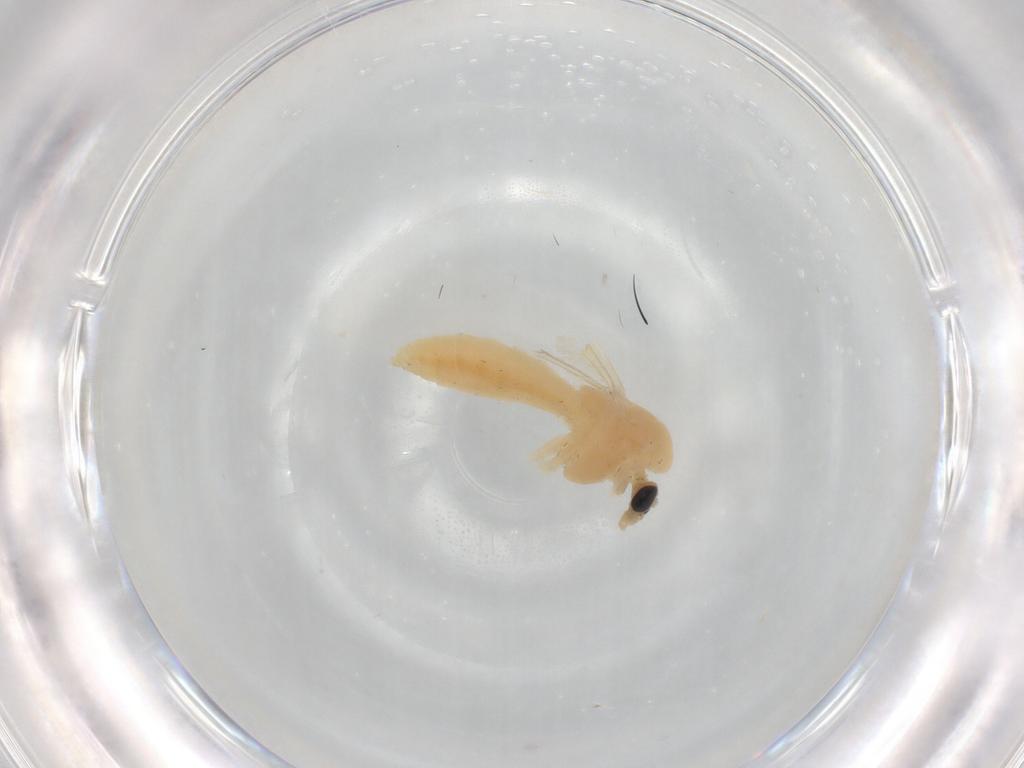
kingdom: Animalia
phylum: Arthropoda
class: Insecta
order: Diptera
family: Chironomidae
